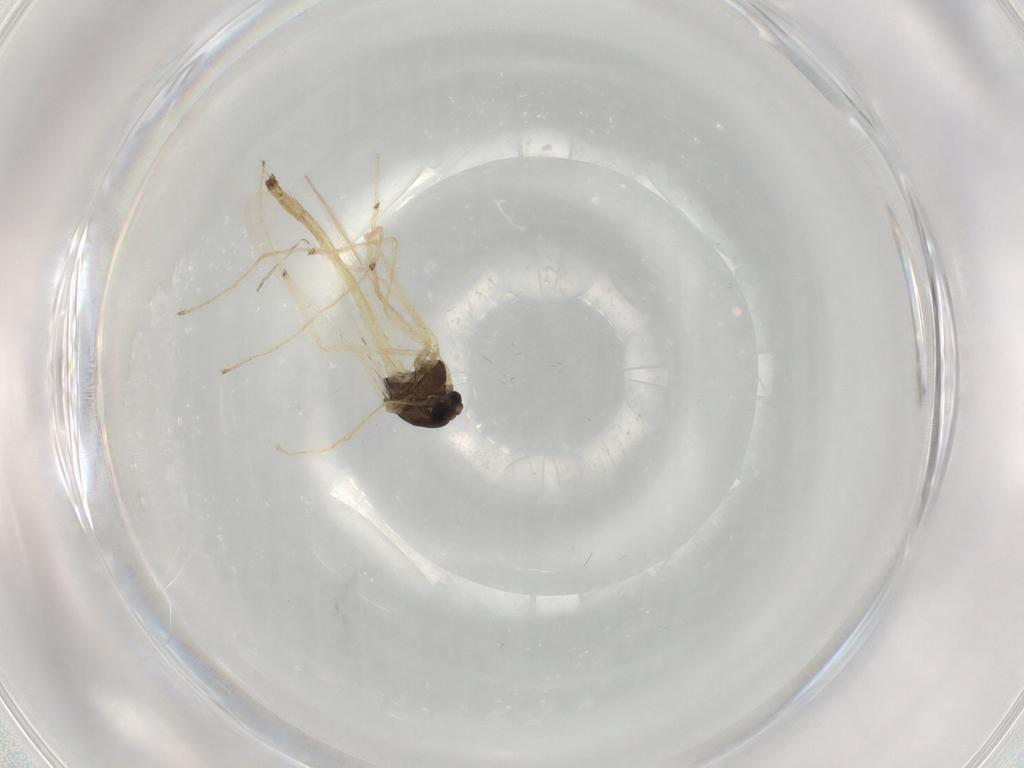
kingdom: Animalia
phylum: Arthropoda
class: Insecta
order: Diptera
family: Chironomidae
